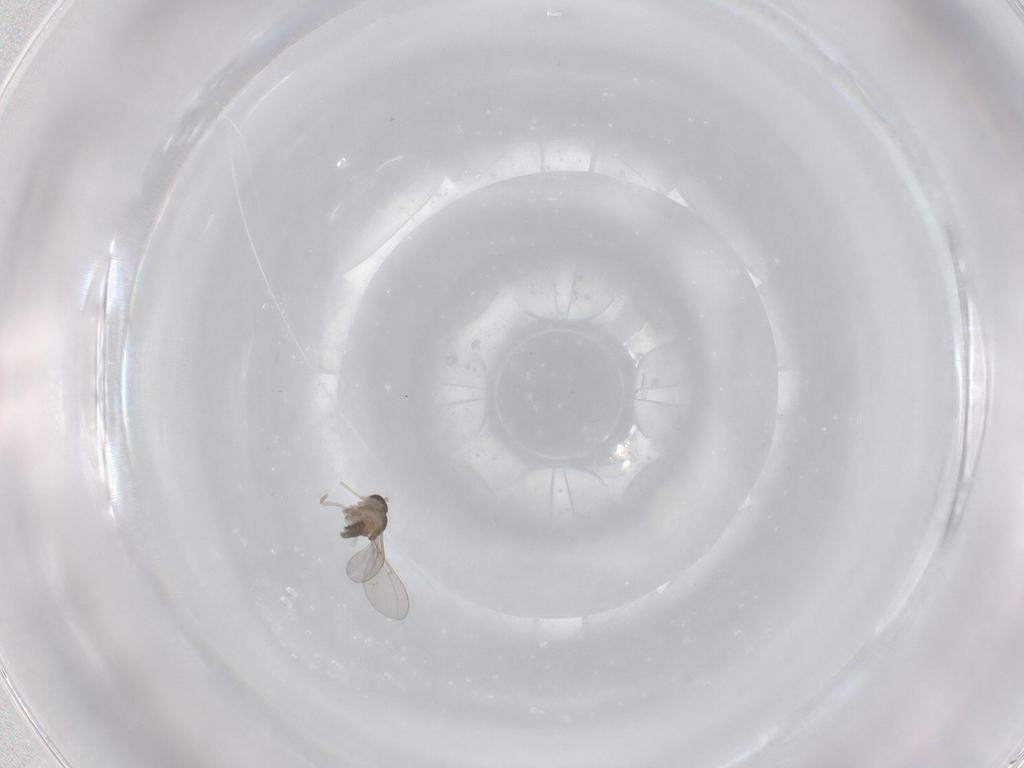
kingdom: Animalia
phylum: Arthropoda
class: Insecta
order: Diptera
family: Cecidomyiidae
